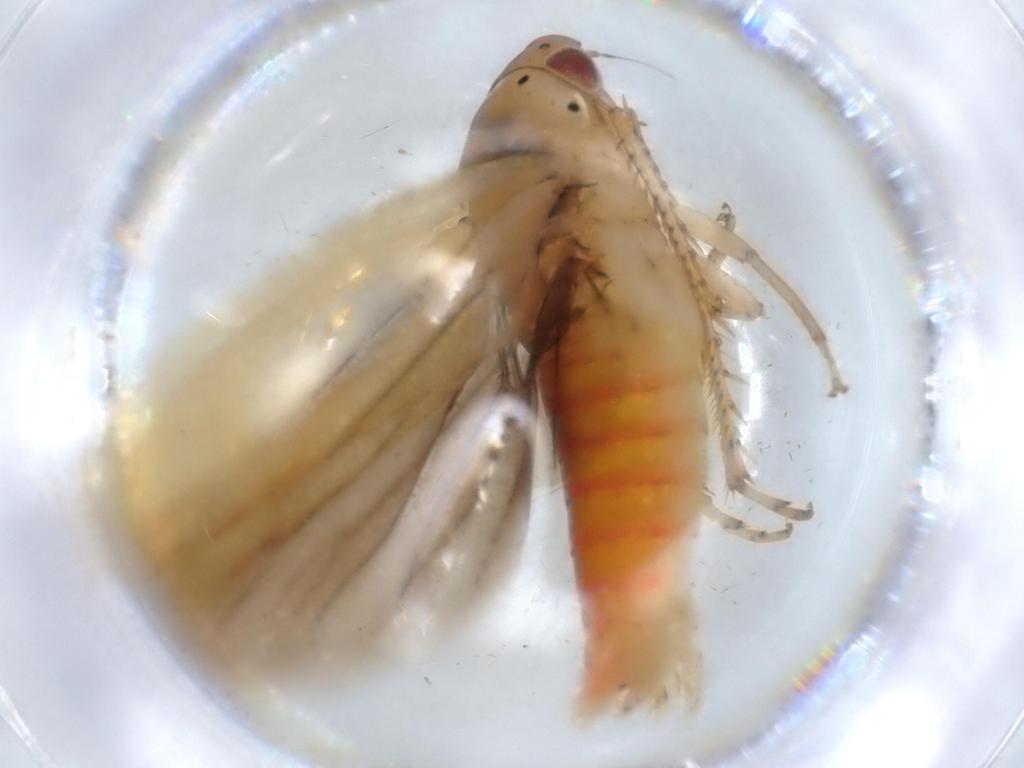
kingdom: Animalia
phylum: Arthropoda
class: Insecta
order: Hemiptera
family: Cicadellidae
